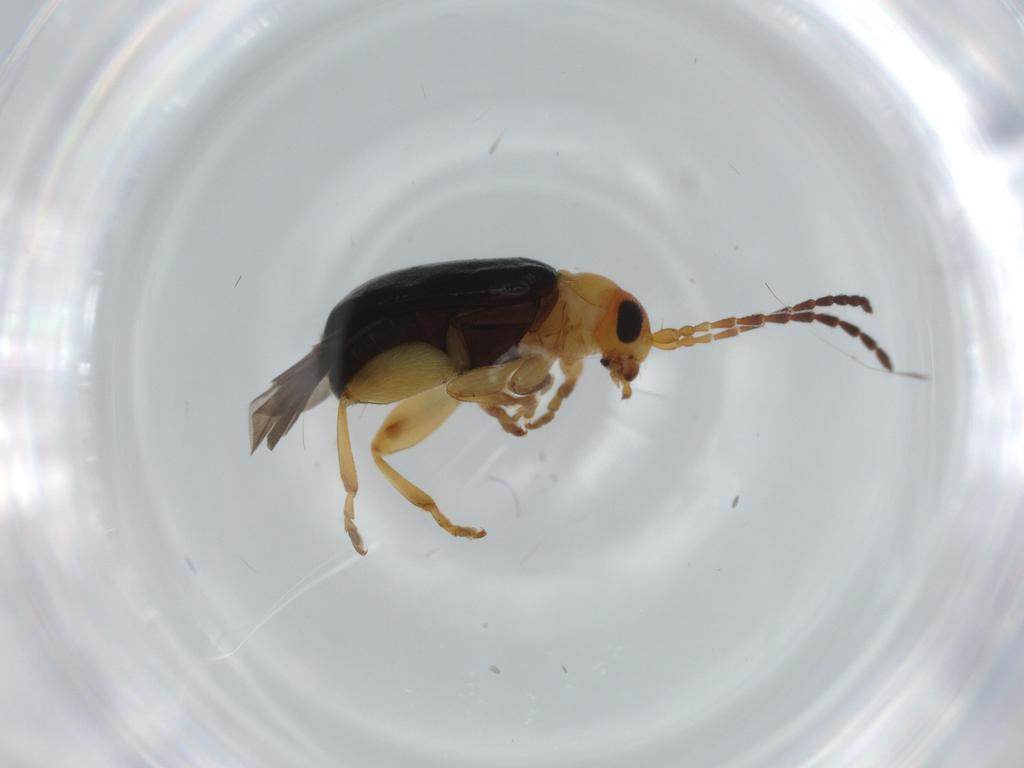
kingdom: Animalia
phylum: Arthropoda
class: Insecta
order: Coleoptera
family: Chrysomelidae
